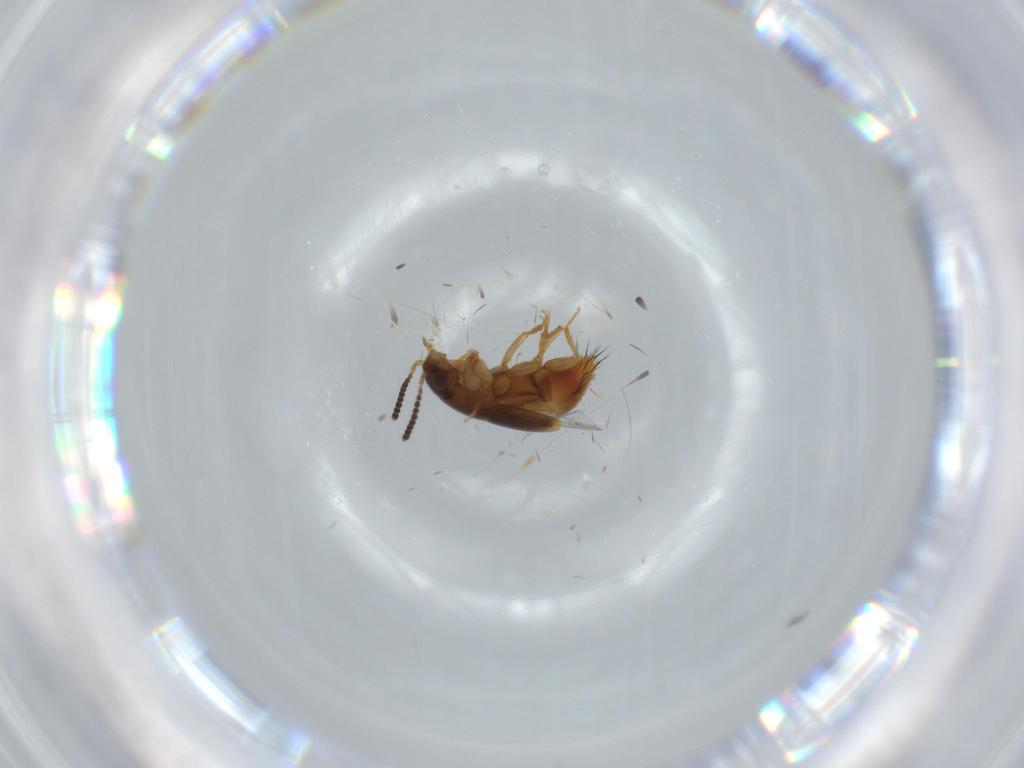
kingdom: Animalia
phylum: Arthropoda
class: Insecta
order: Coleoptera
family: Staphylinidae
